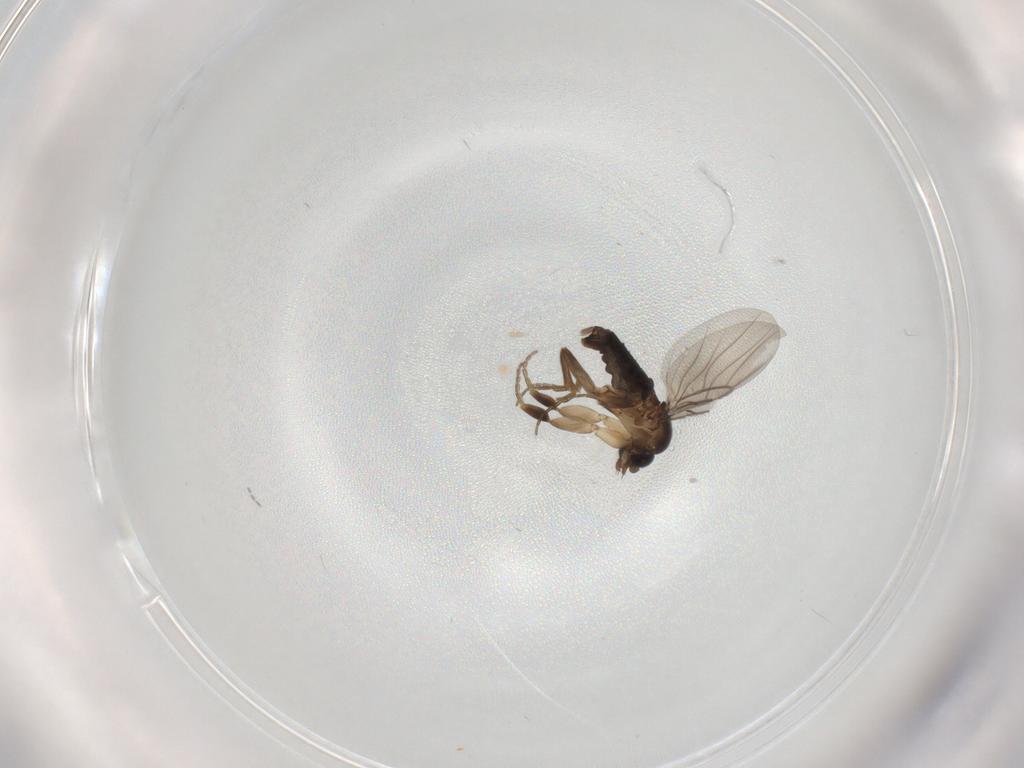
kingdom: Animalia
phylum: Arthropoda
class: Insecta
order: Diptera
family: Phoridae
